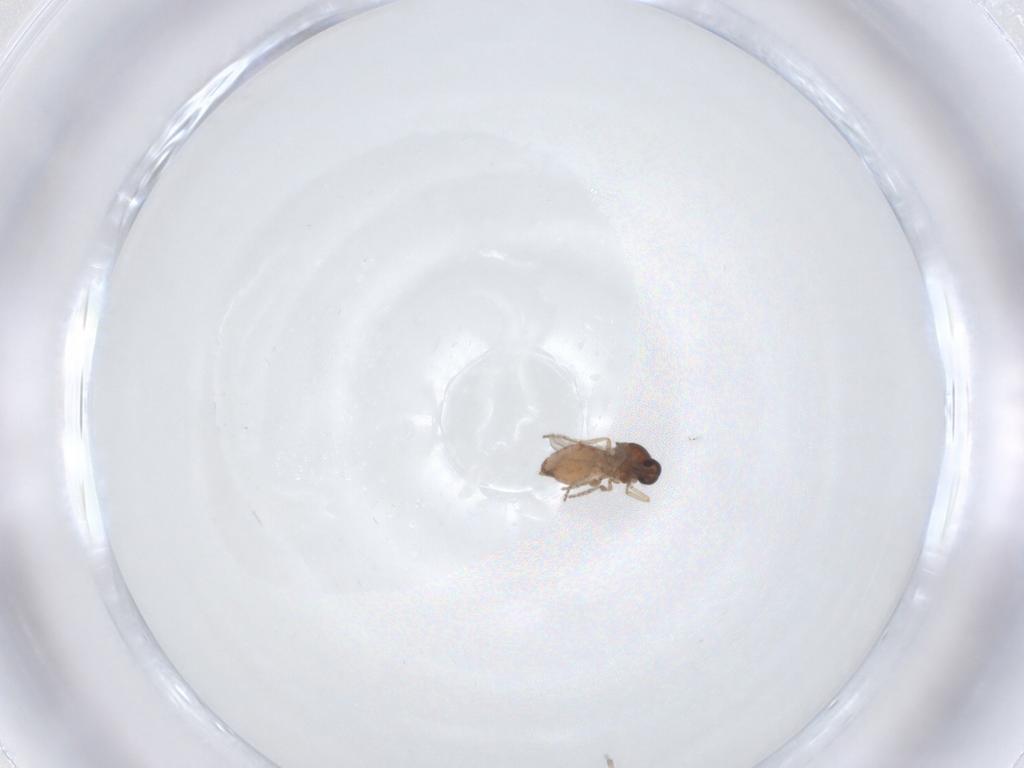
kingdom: Animalia
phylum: Arthropoda
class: Insecta
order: Diptera
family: Ceratopogonidae
